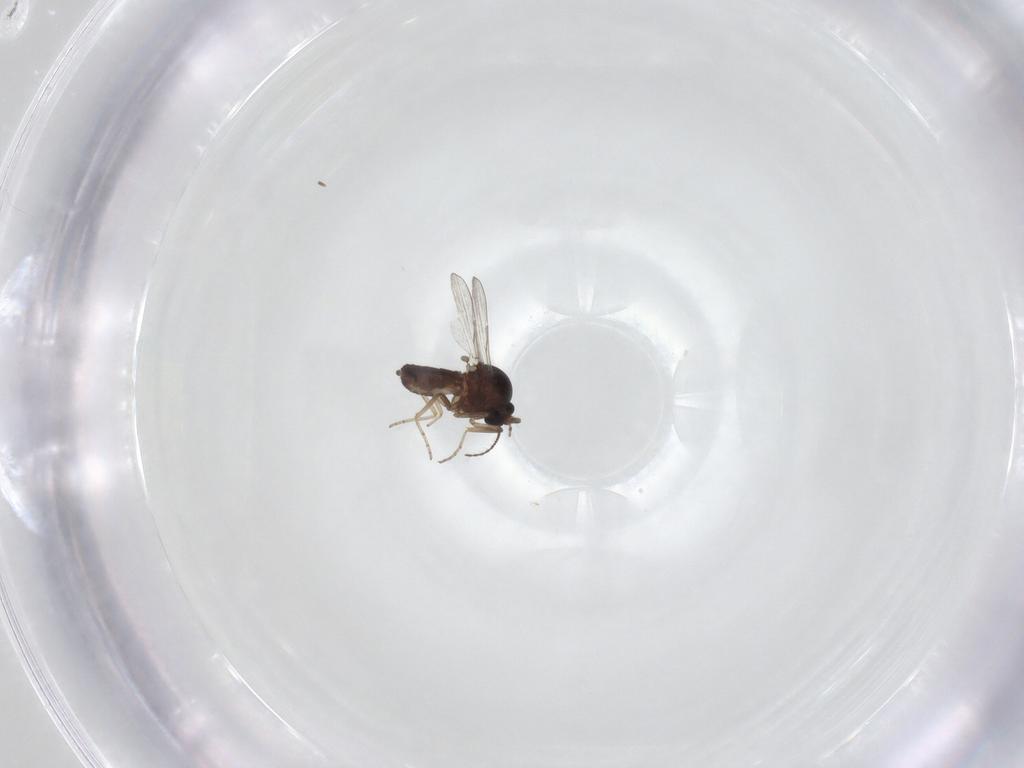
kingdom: Animalia
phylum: Arthropoda
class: Insecta
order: Diptera
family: Ceratopogonidae
